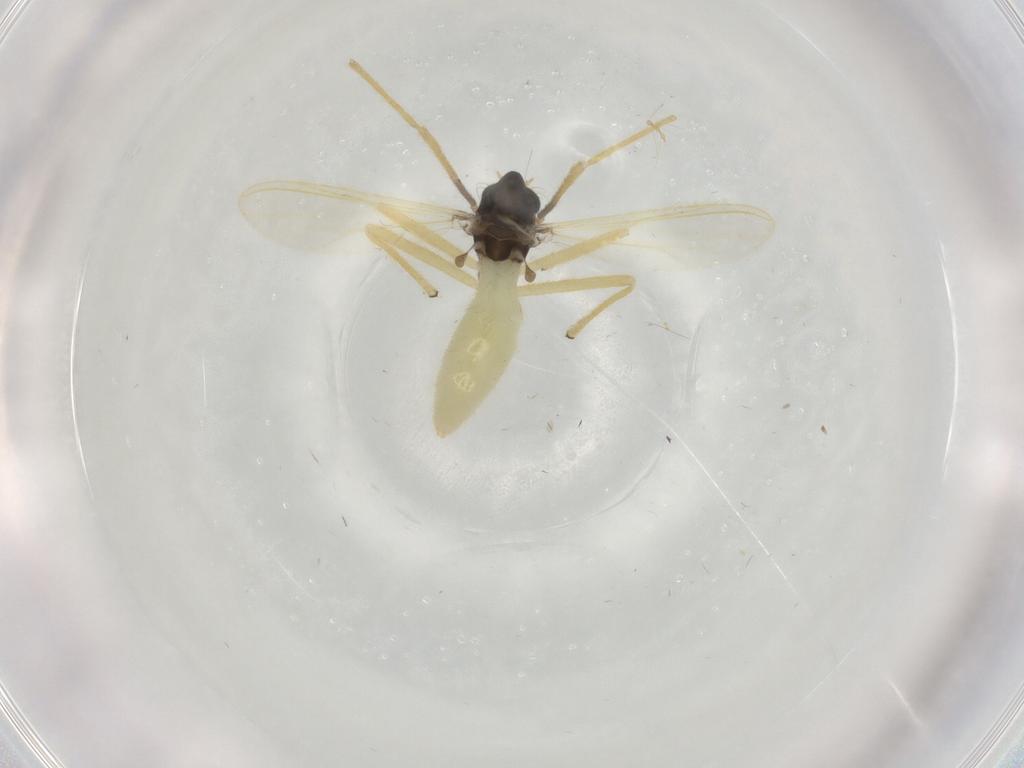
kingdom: Animalia
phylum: Arthropoda
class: Insecta
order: Diptera
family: Chironomidae
